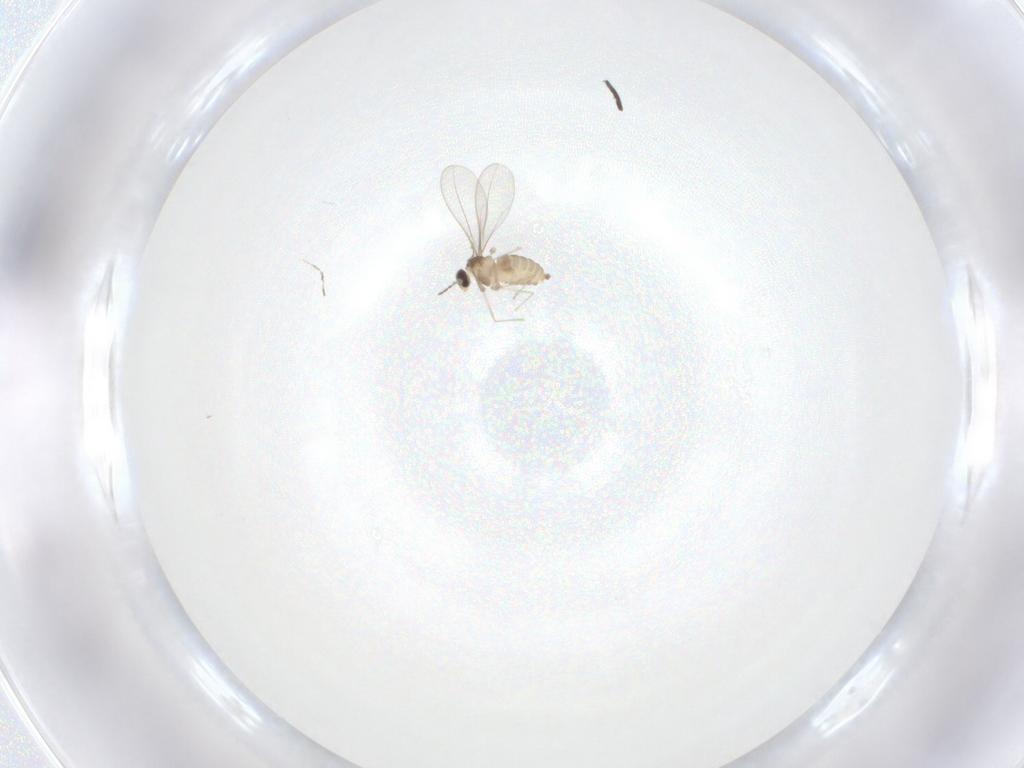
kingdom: Animalia
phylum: Arthropoda
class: Insecta
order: Diptera
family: Cecidomyiidae
